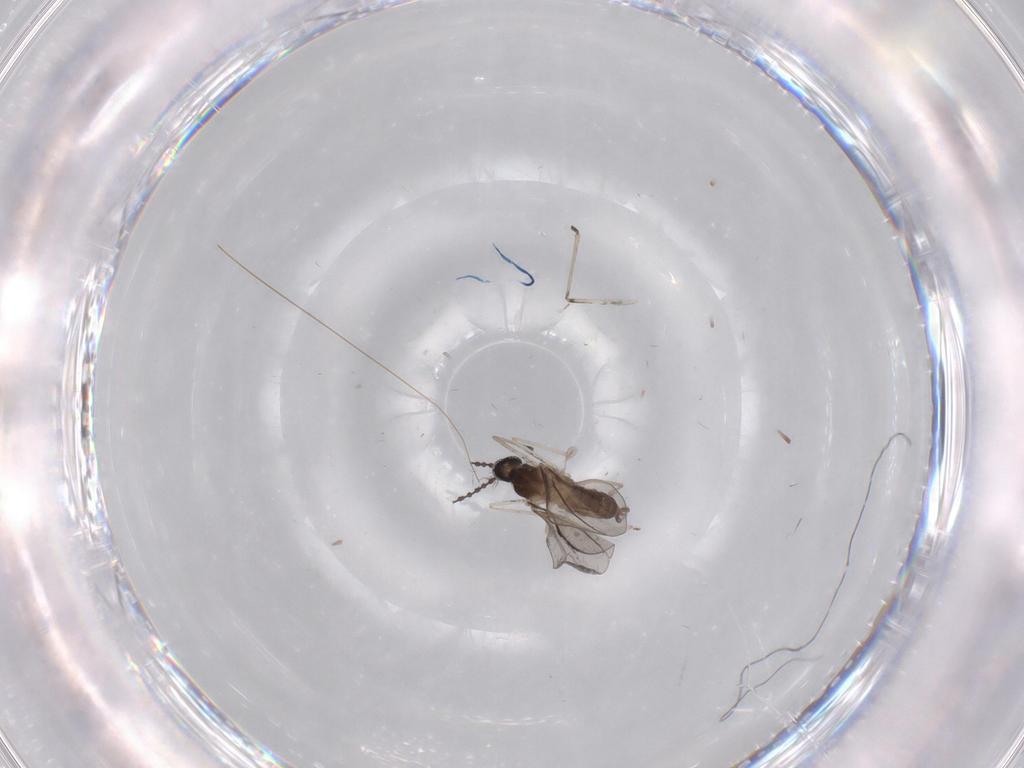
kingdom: Animalia
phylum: Arthropoda
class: Insecta
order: Diptera
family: Cecidomyiidae
